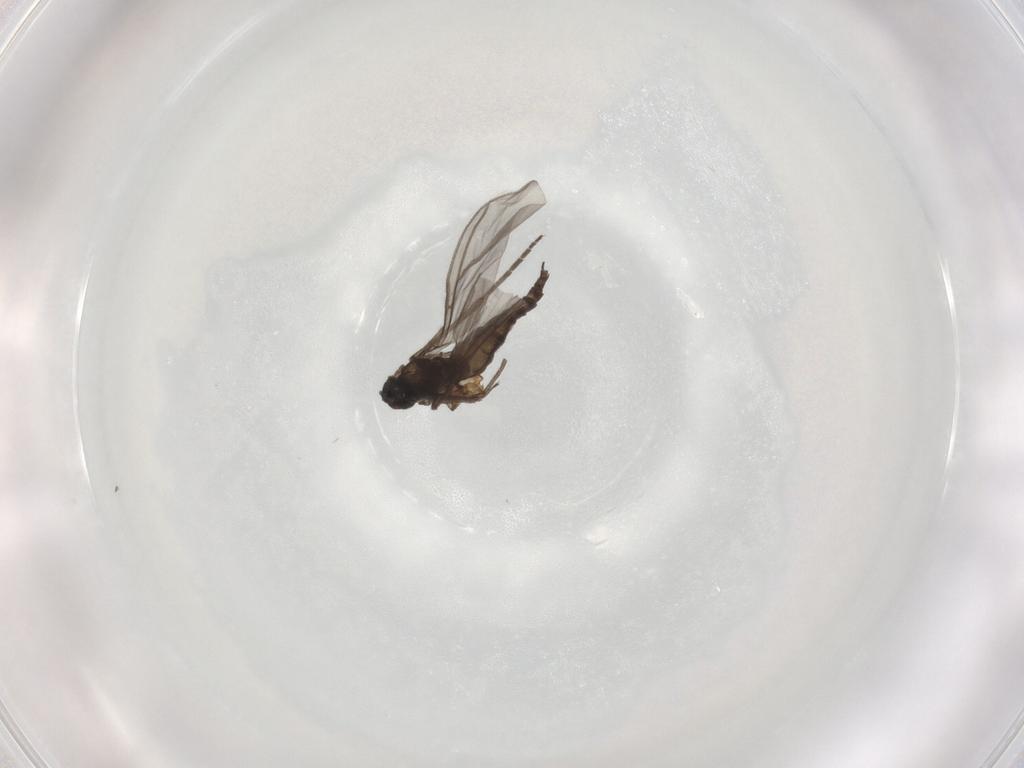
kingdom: Animalia
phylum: Arthropoda
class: Insecta
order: Diptera
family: Sciaridae
